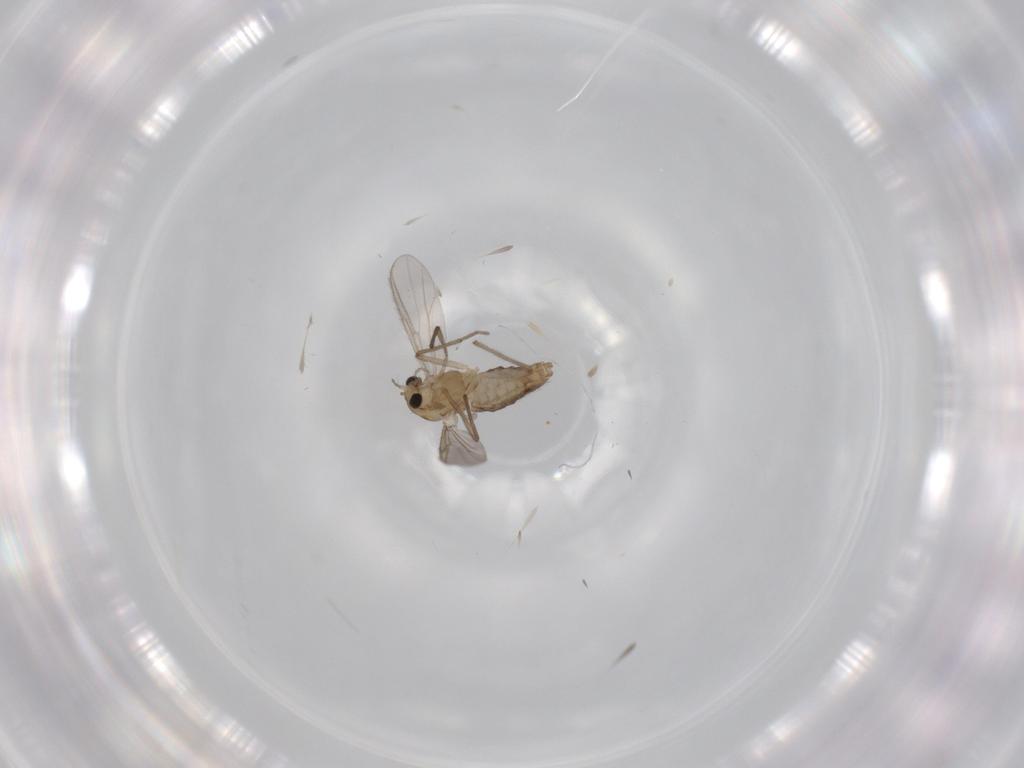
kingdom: Animalia
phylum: Arthropoda
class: Insecta
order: Diptera
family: Chironomidae
